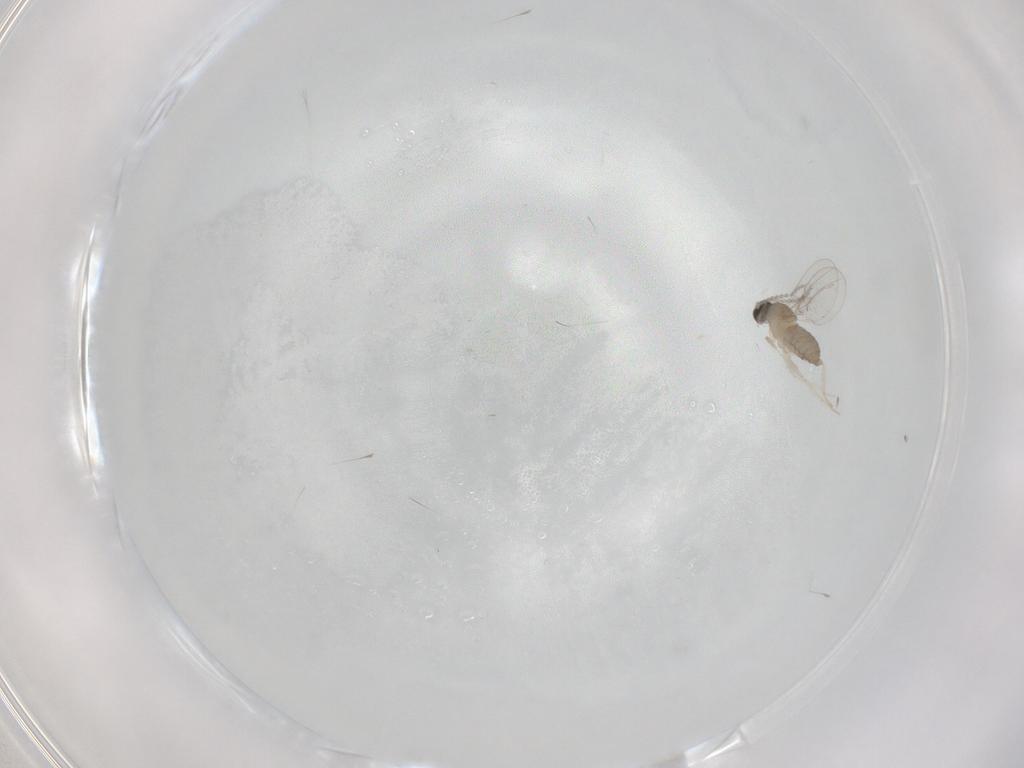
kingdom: Animalia
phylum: Arthropoda
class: Insecta
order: Diptera
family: Cecidomyiidae
